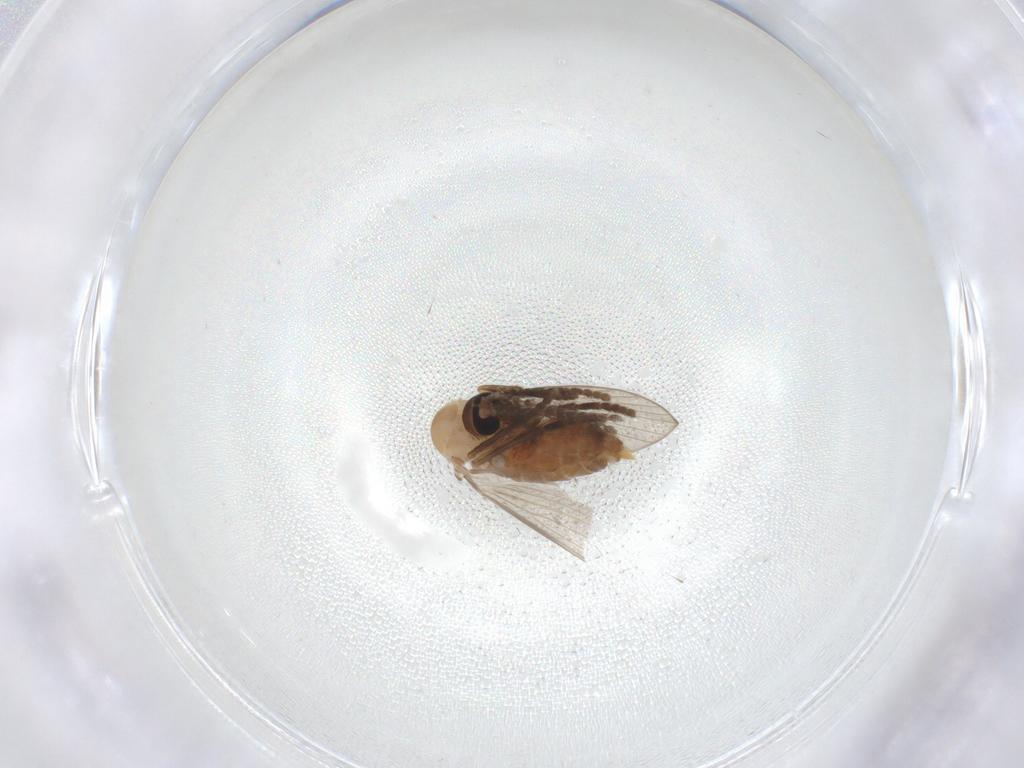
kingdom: Animalia
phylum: Arthropoda
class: Insecta
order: Diptera
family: Psychodidae
